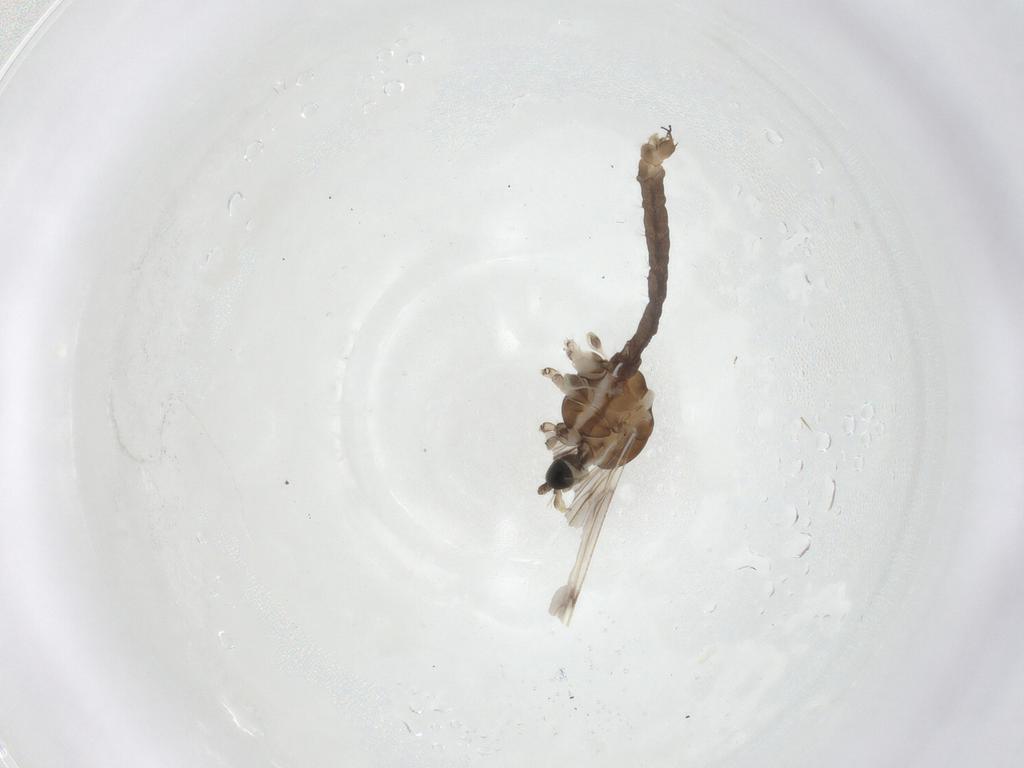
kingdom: Animalia
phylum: Arthropoda
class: Insecta
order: Diptera
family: Limoniidae
